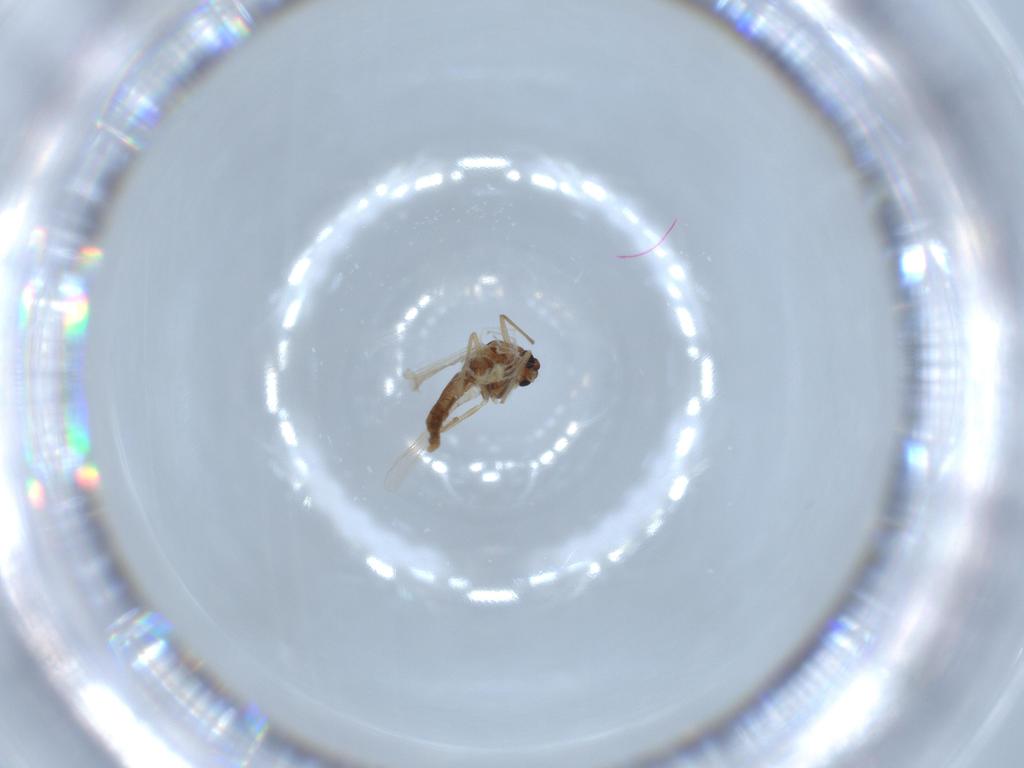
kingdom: Animalia
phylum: Arthropoda
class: Insecta
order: Diptera
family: Chironomidae
